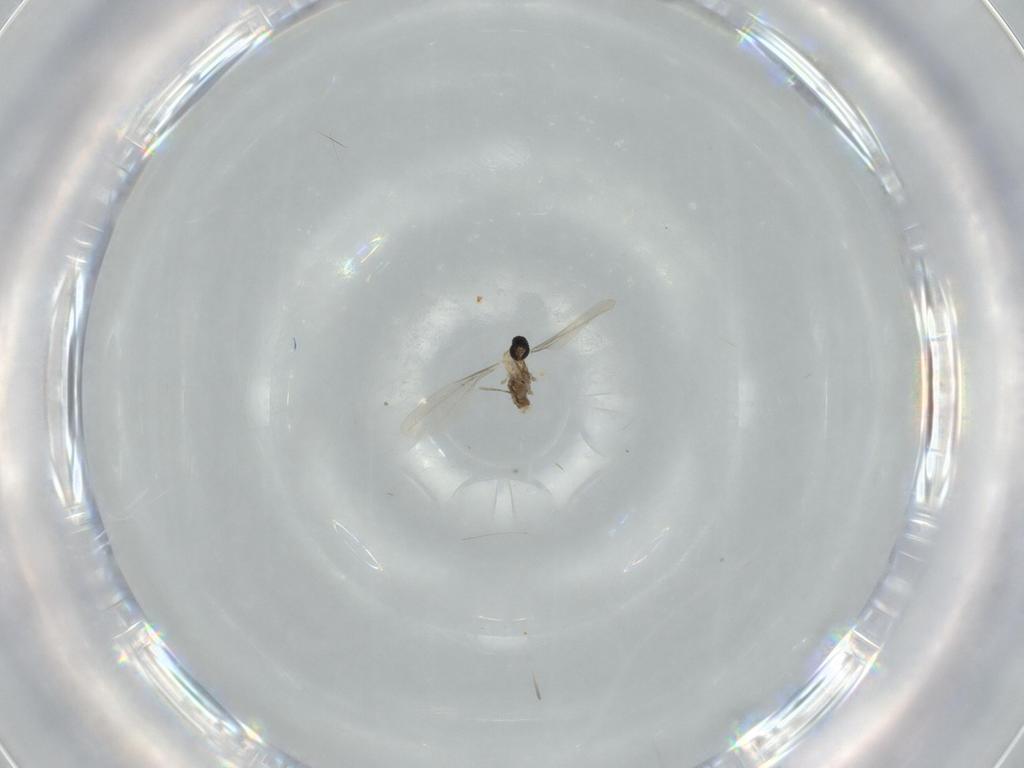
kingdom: Animalia
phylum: Arthropoda
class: Insecta
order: Diptera
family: Cecidomyiidae
